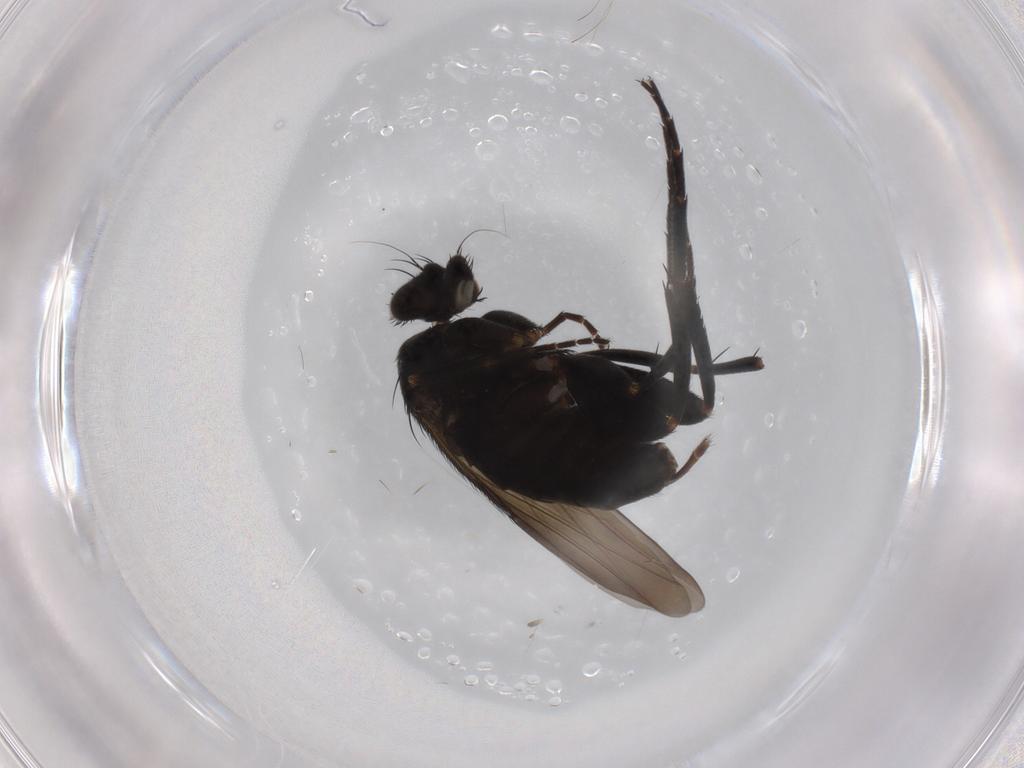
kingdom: Animalia
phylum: Arthropoda
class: Insecta
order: Diptera
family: Phoridae
